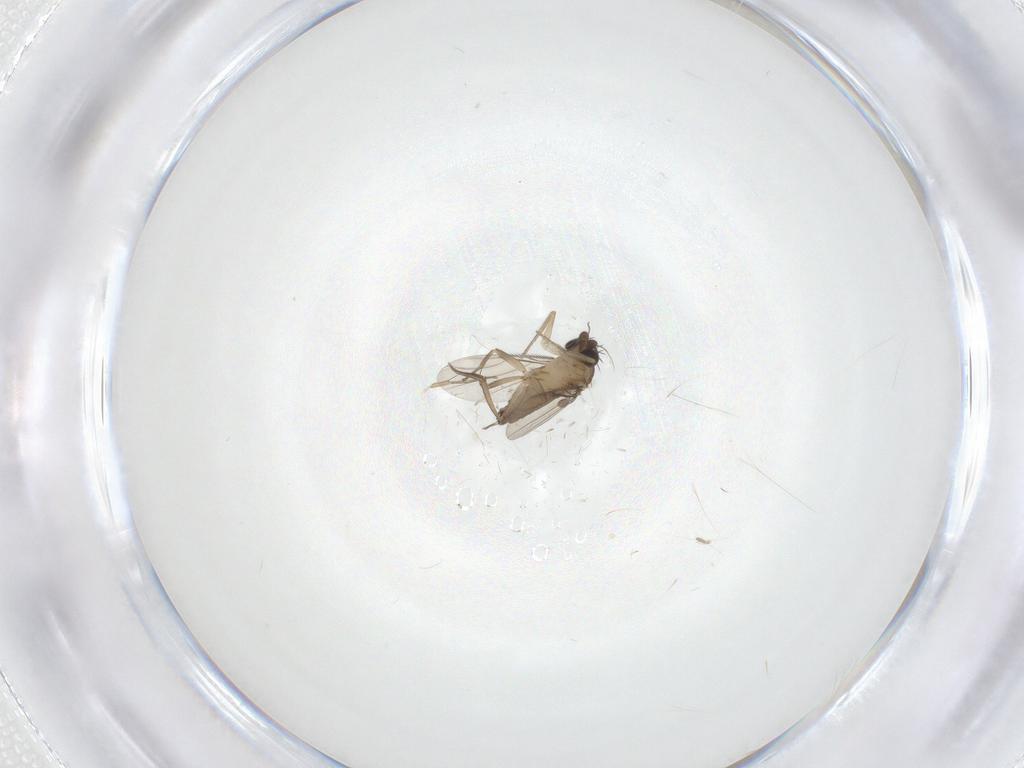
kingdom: Animalia
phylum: Arthropoda
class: Insecta
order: Diptera
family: Phoridae
